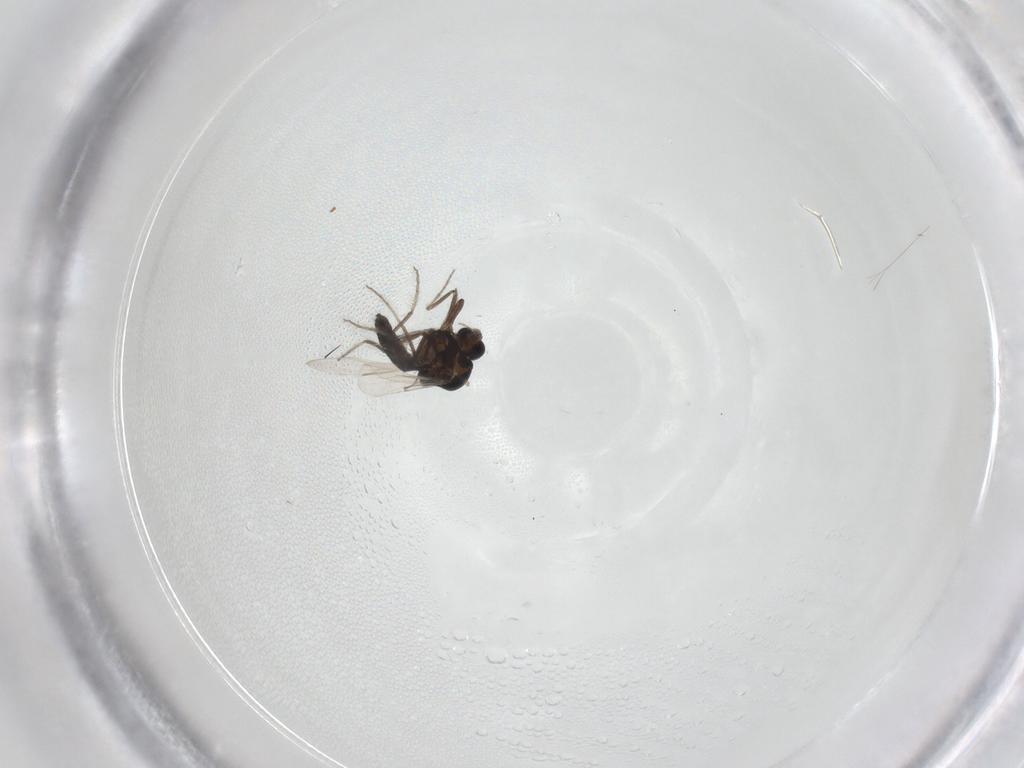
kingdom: Animalia
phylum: Arthropoda
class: Insecta
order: Diptera
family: Ceratopogonidae
